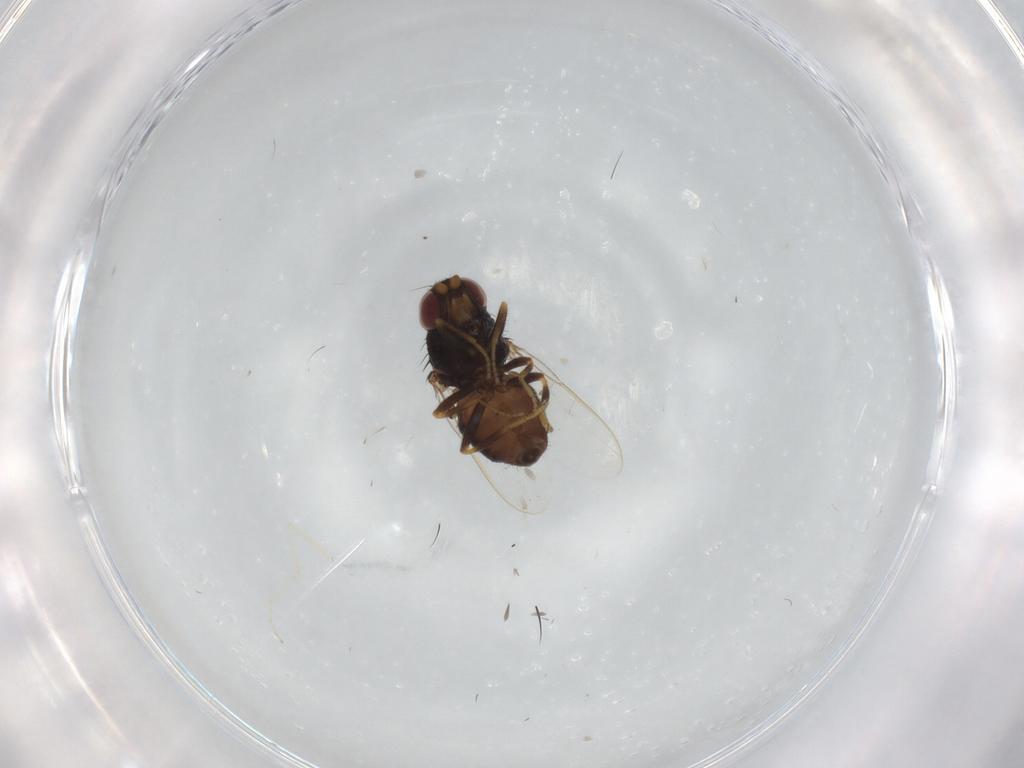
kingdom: Animalia
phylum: Arthropoda
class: Insecta
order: Diptera
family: Chloropidae
